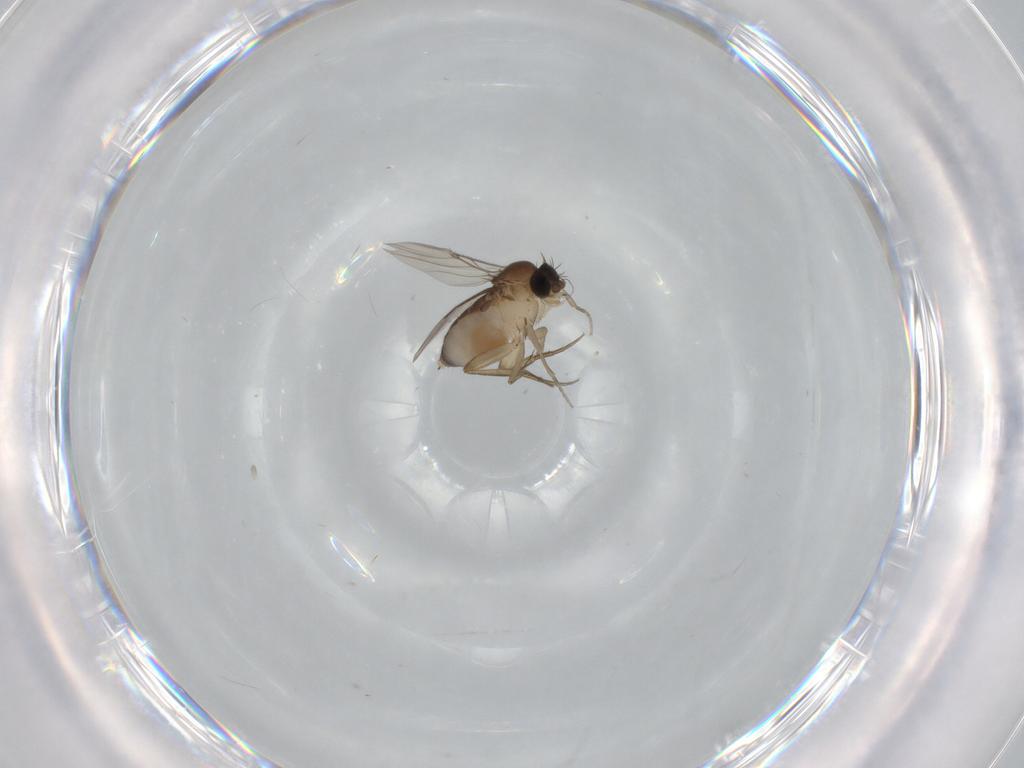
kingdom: Animalia
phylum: Arthropoda
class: Insecta
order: Diptera
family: Phoridae
